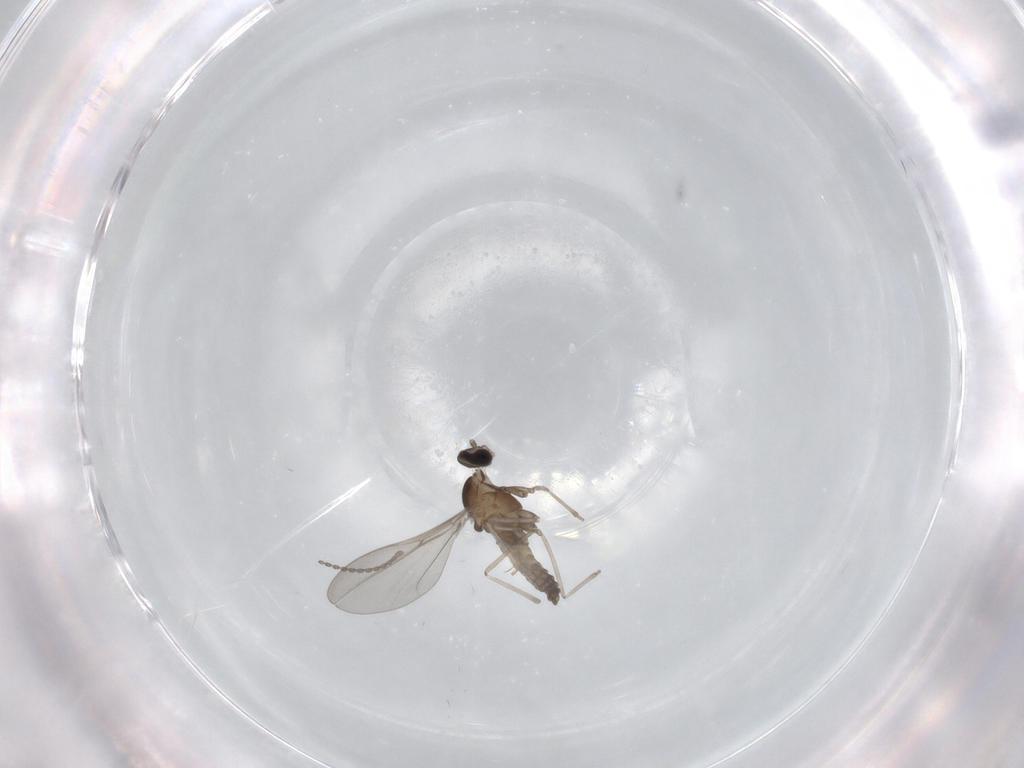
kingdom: Animalia
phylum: Arthropoda
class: Insecta
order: Diptera
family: Cecidomyiidae
